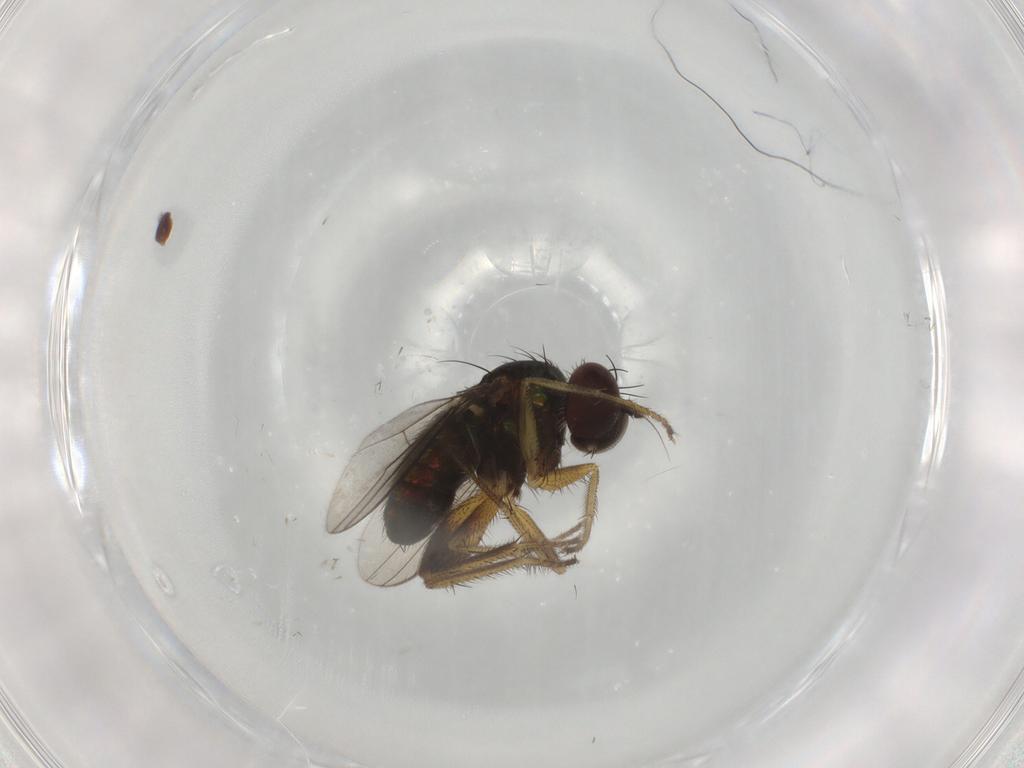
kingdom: Animalia
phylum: Arthropoda
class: Insecta
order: Diptera
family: Dolichopodidae
